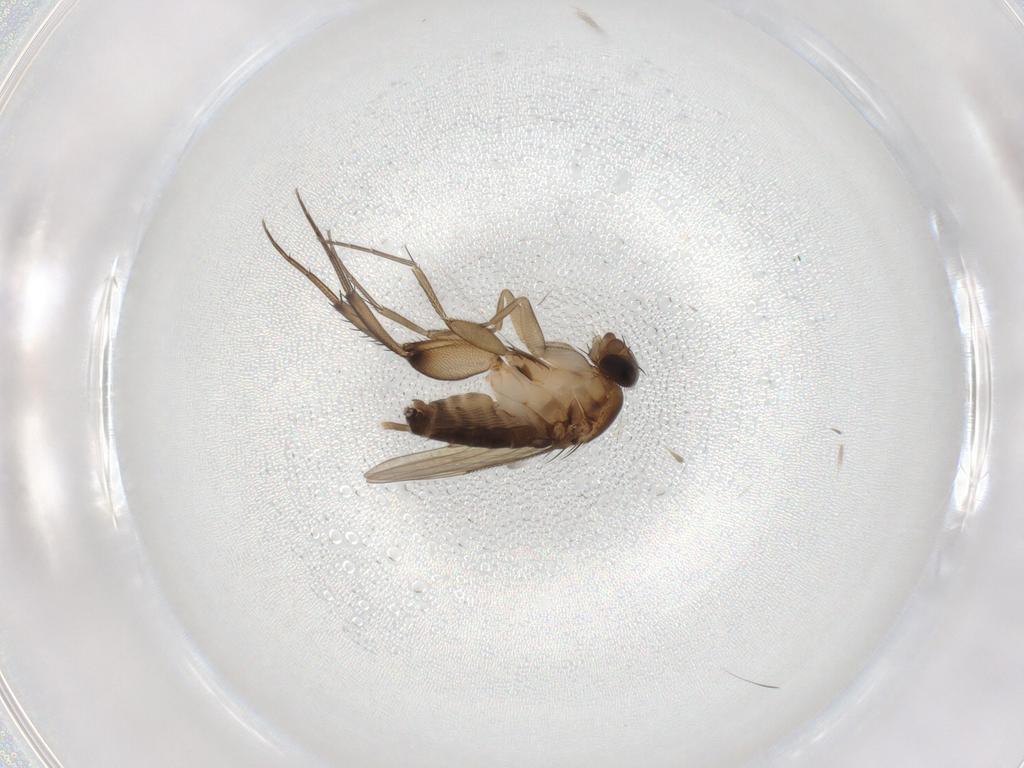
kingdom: Animalia
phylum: Arthropoda
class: Insecta
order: Diptera
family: Phoridae
